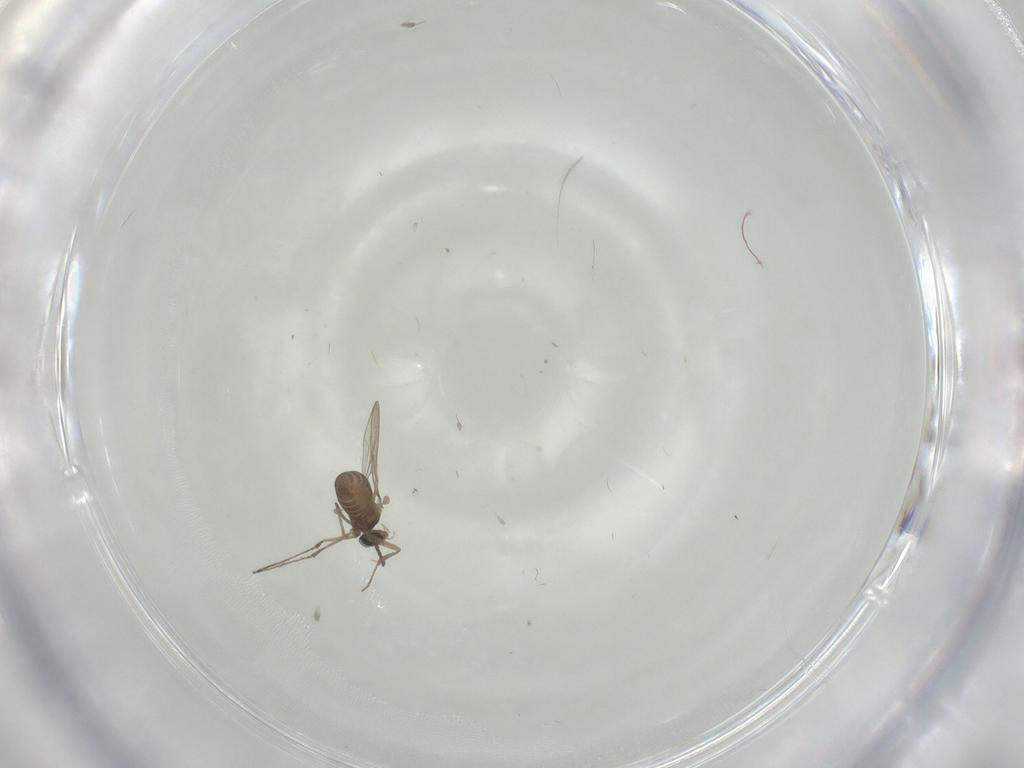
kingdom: Animalia
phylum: Arthropoda
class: Insecta
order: Diptera
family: Cecidomyiidae
